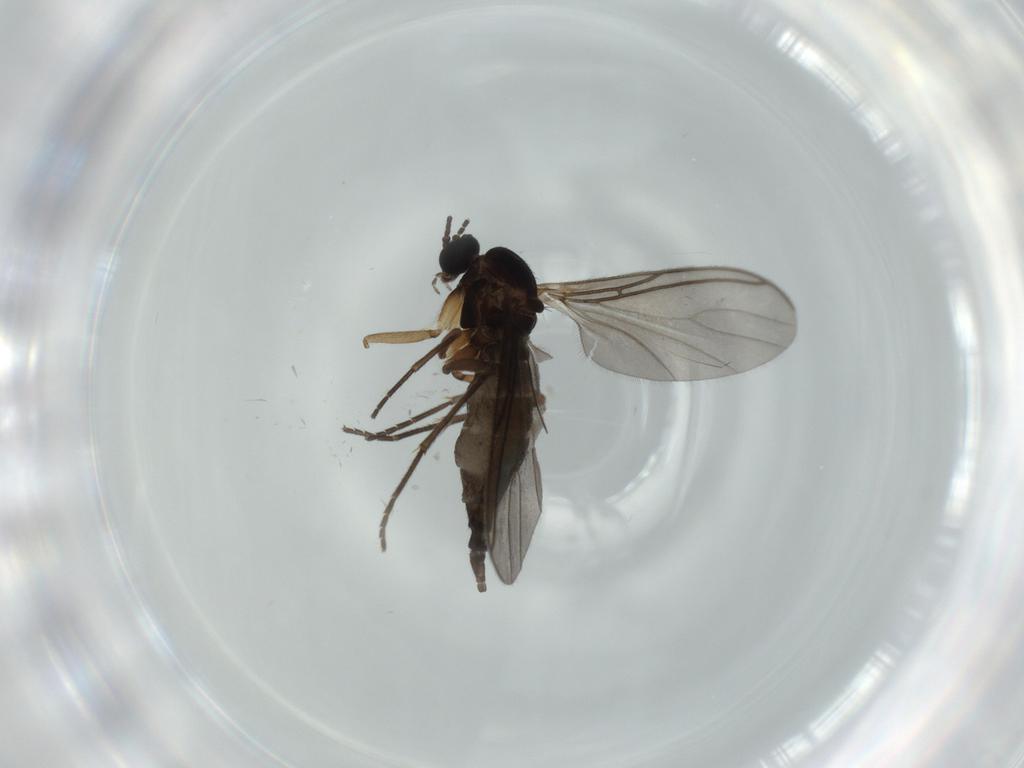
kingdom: Animalia
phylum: Arthropoda
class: Insecta
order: Diptera
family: Sciaridae
